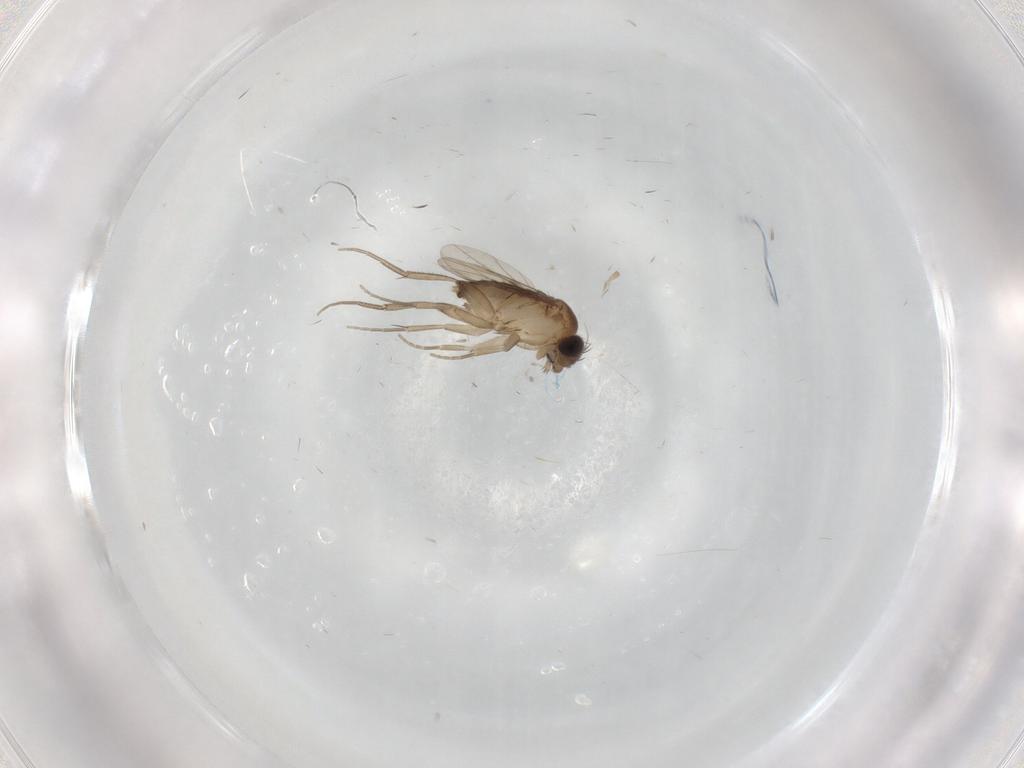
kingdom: Animalia
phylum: Arthropoda
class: Insecta
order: Diptera
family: Phoridae
